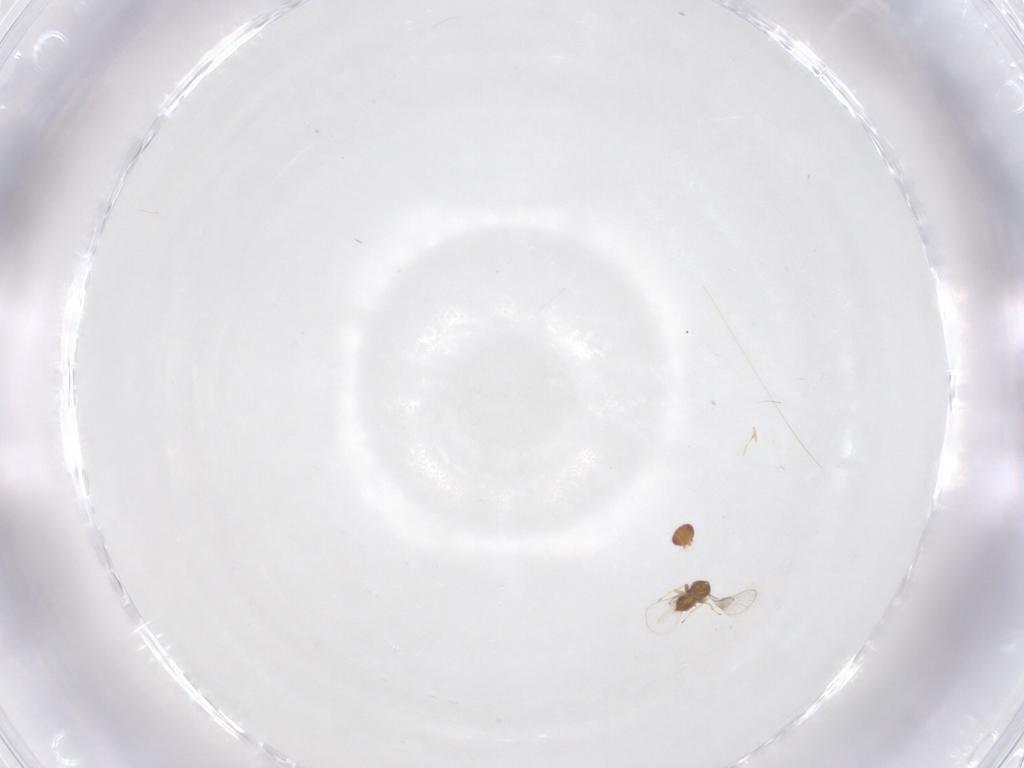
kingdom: Animalia
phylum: Arthropoda
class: Insecta
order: Hymenoptera
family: Trichogrammatidae
